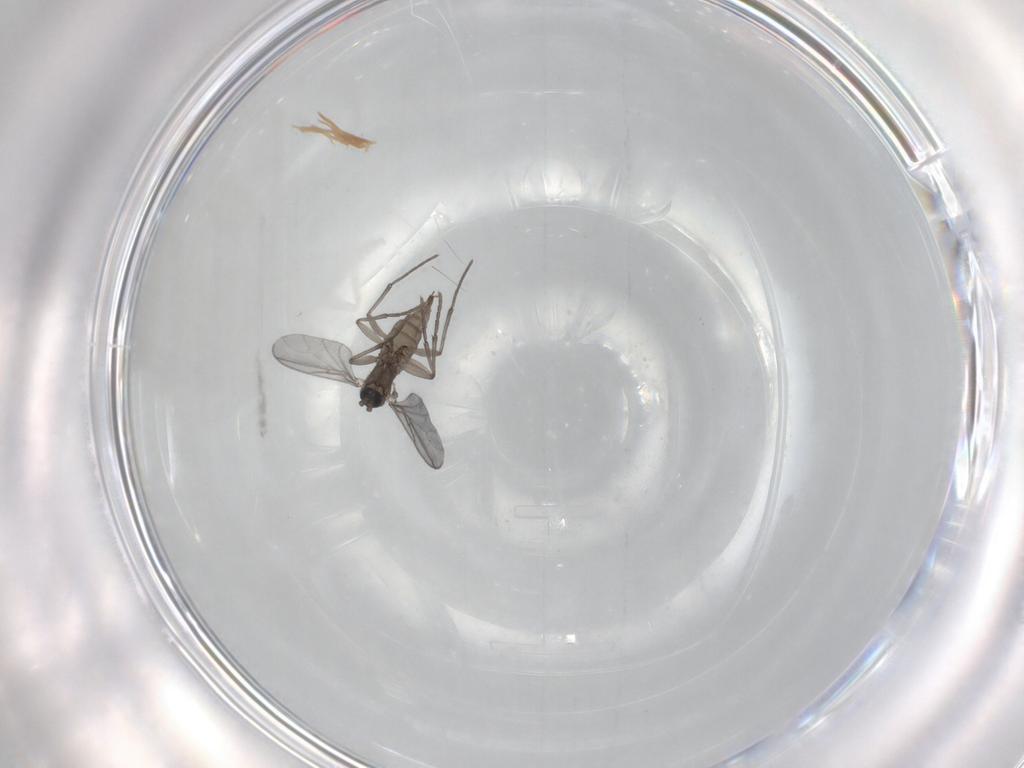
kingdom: Animalia
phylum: Arthropoda
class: Insecta
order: Diptera
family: Sciaridae
